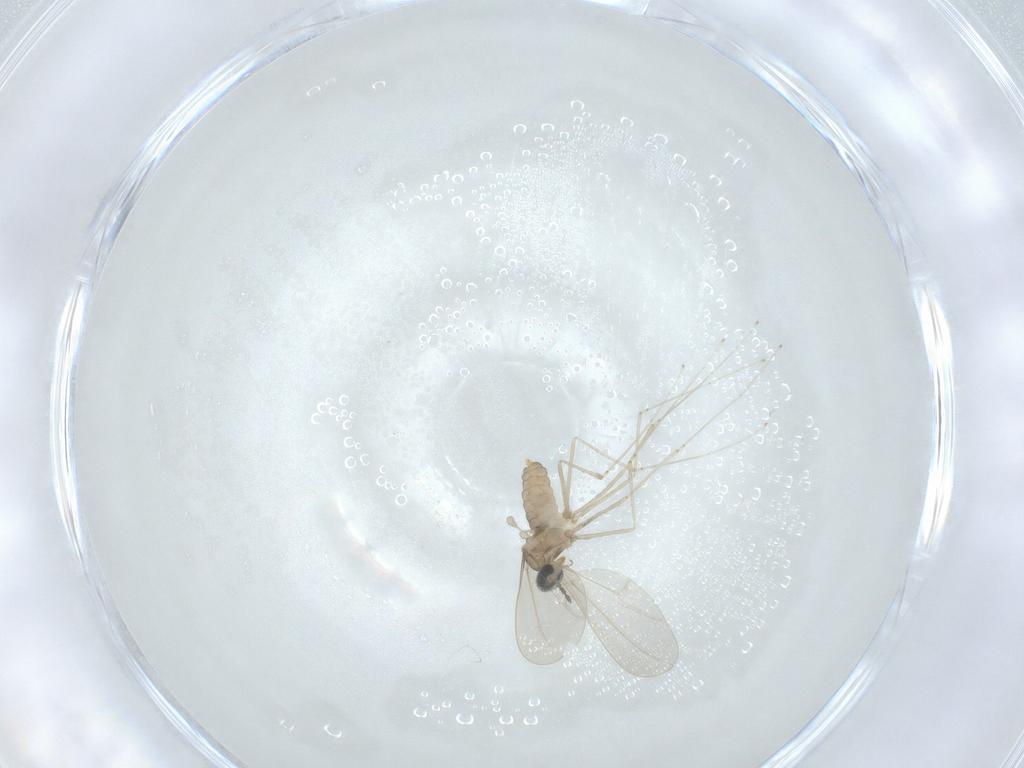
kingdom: Animalia
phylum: Arthropoda
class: Insecta
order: Diptera
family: Cecidomyiidae
